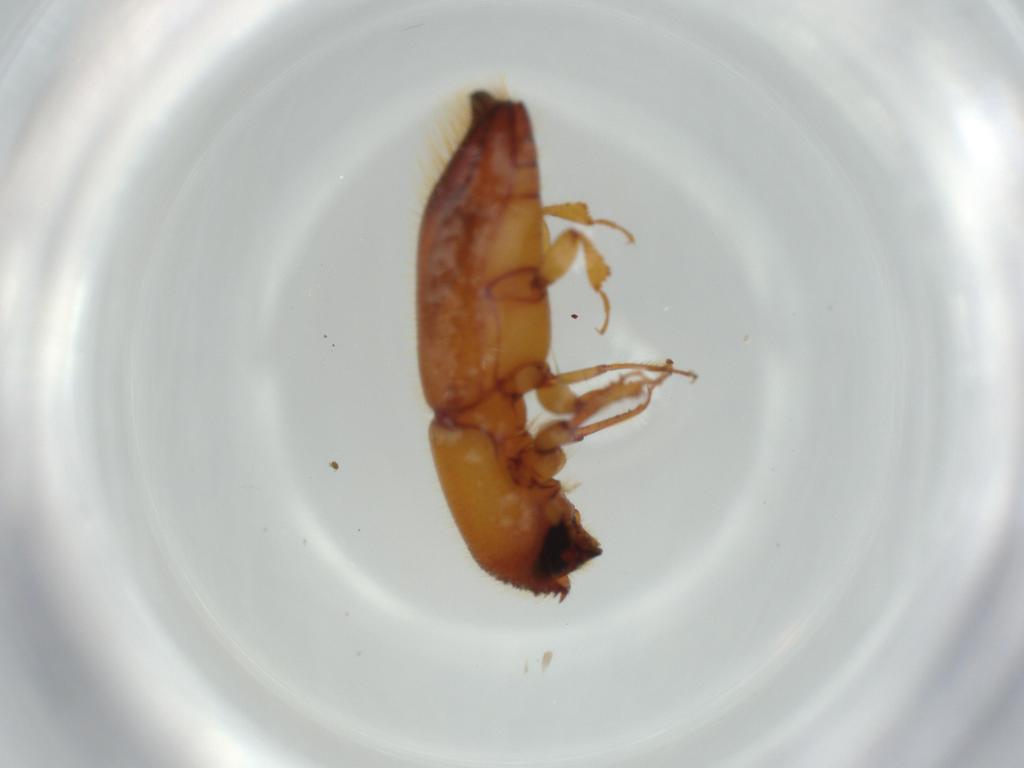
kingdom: Animalia
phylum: Arthropoda
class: Insecta
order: Coleoptera
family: Curculionidae
